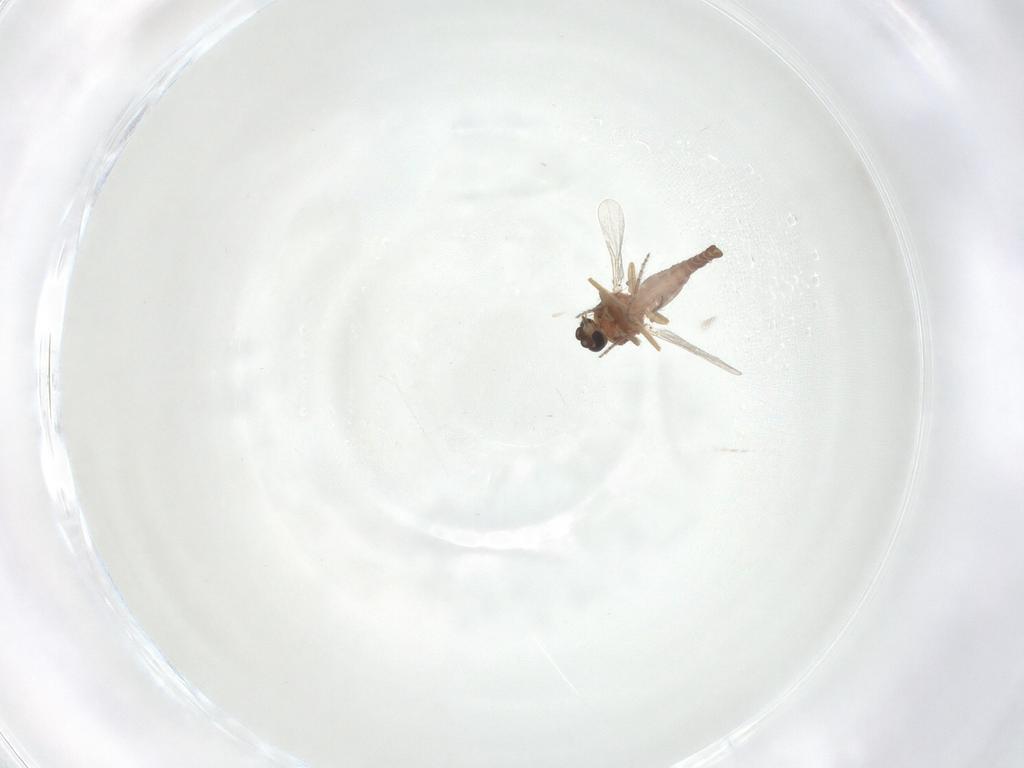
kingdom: Animalia
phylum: Arthropoda
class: Insecta
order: Diptera
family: Ceratopogonidae
